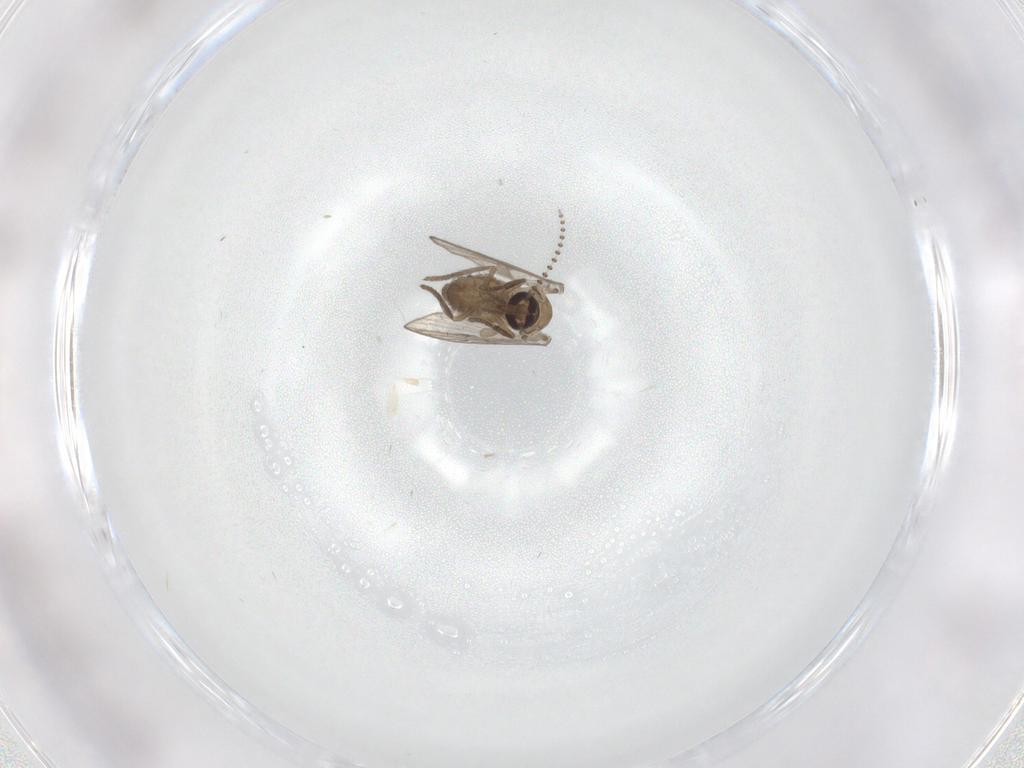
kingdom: Animalia
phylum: Arthropoda
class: Insecta
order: Diptera
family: Psychodidae
